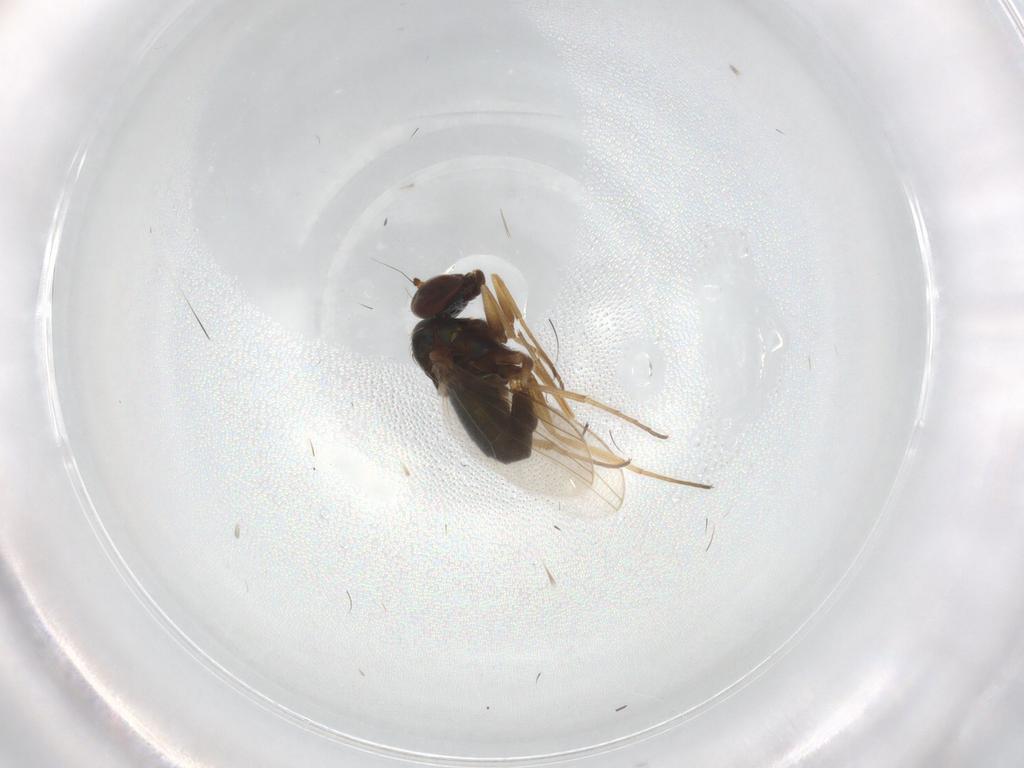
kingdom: Animalia
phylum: Arthropoda
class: Insecta
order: Diptera
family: Dolichopodidae
